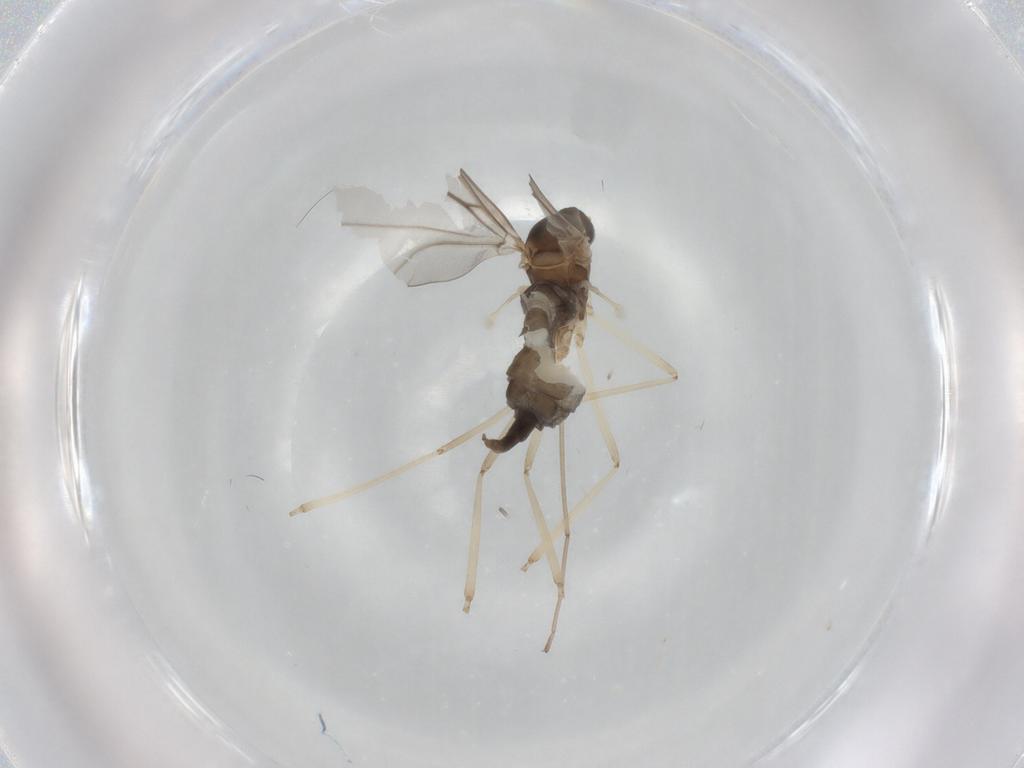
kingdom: Animalia
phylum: Arthropoda
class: Insecta
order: Diptera
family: Cecidomyiidae
